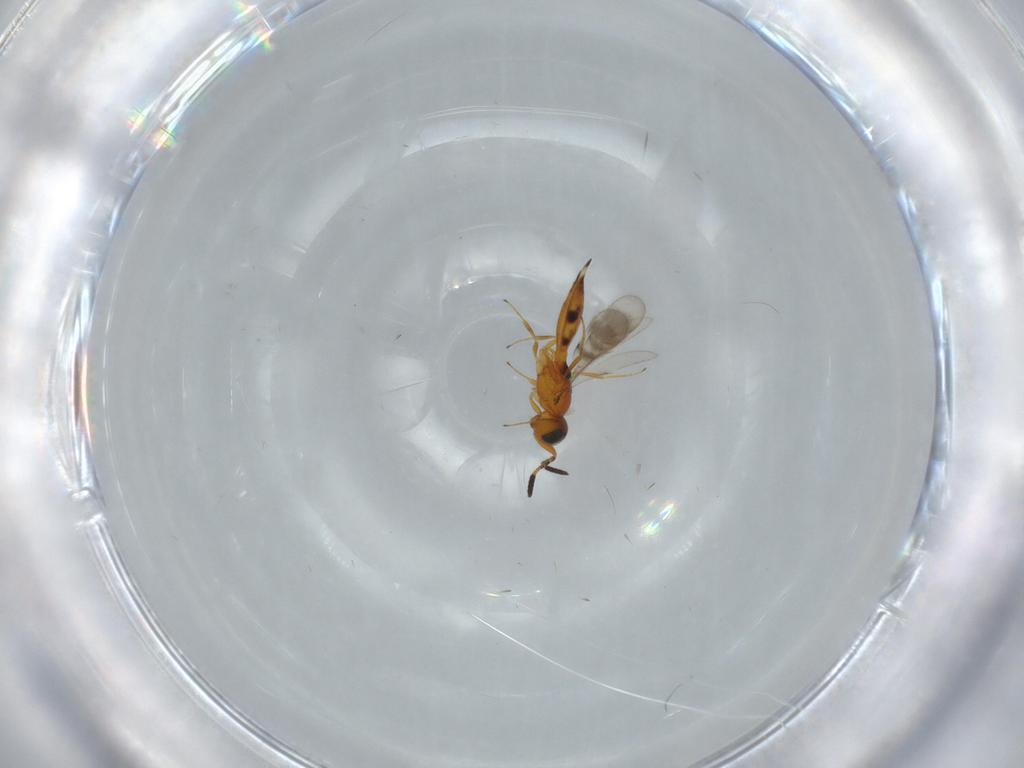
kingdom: Animalia
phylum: Arthropoda
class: Insecta
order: Hymenoptera
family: Scelionidae
